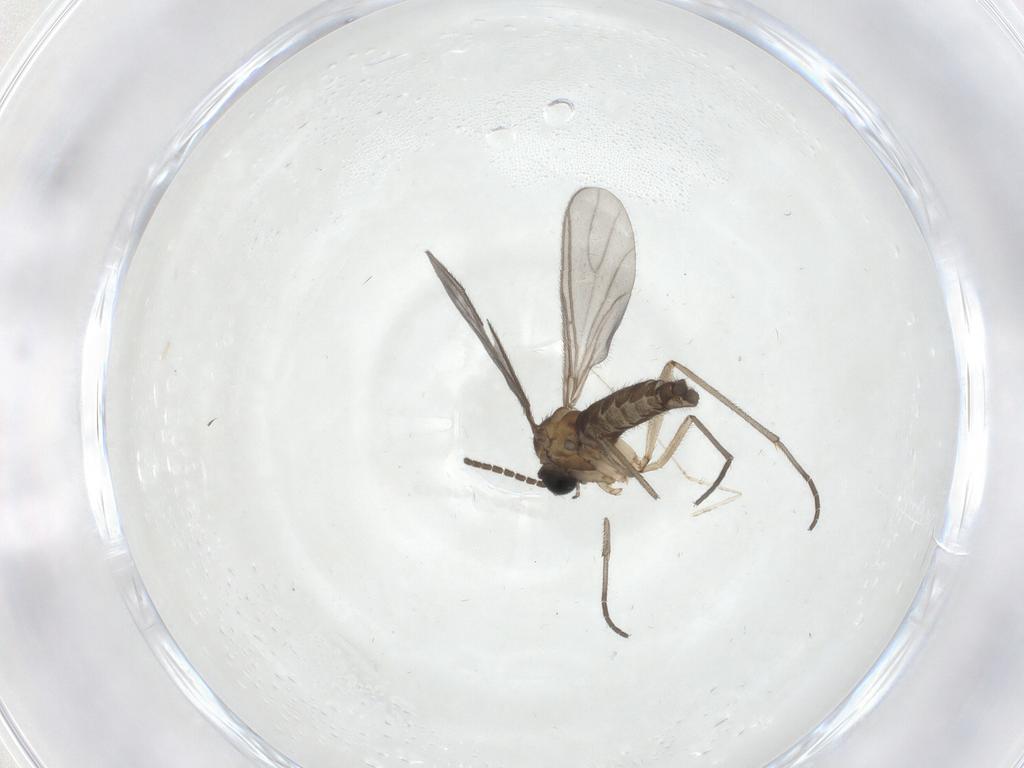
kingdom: Animalia
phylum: Arthropoda
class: Insecta
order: Diptera
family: Sciaridae
